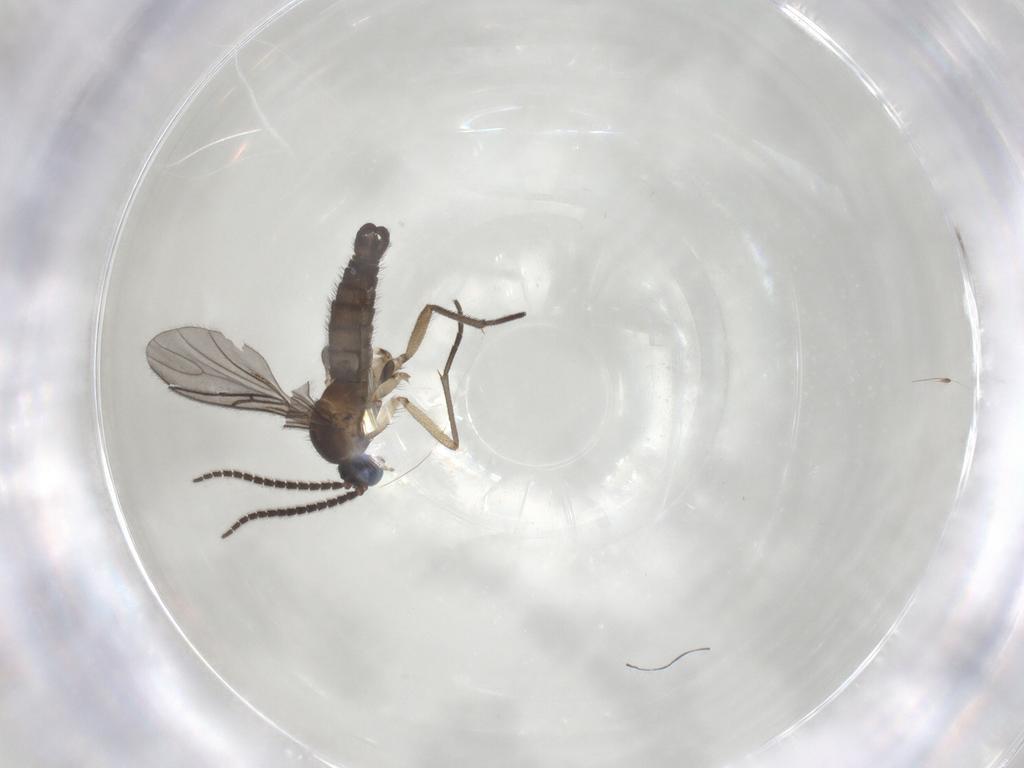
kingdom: Animalia
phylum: Arthropoda
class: Insecta
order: Diptera
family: Sciaridae
